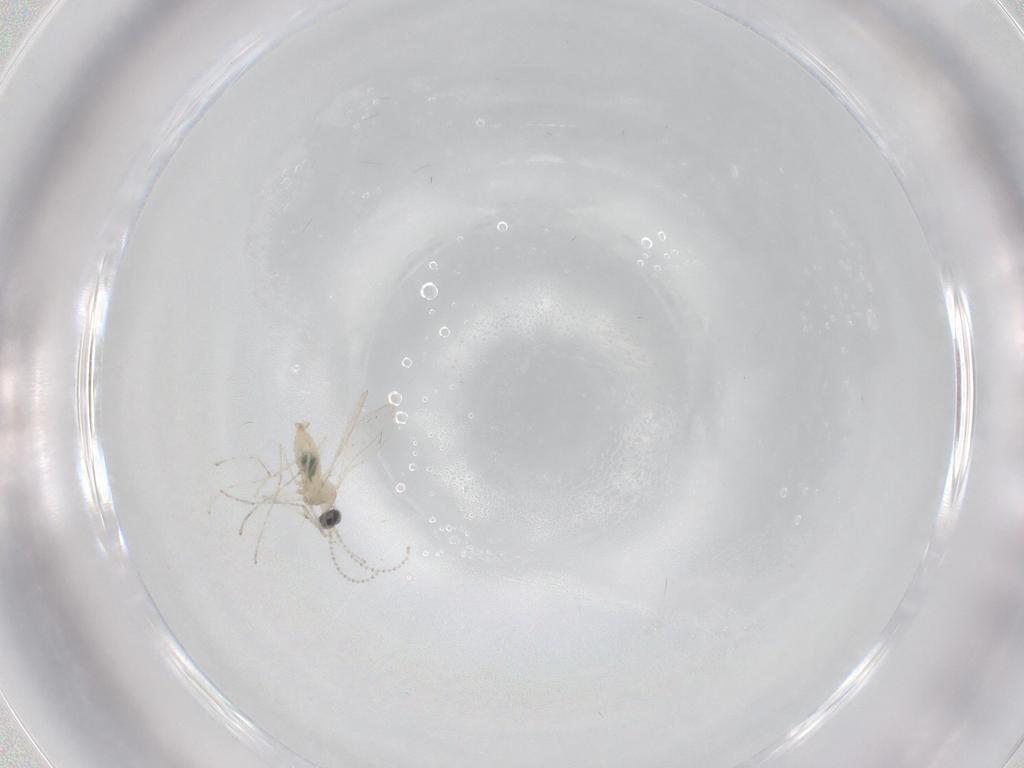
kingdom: Animalia
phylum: Arthropoda
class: Insecta
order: Diptera
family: Cecidomyiidae
